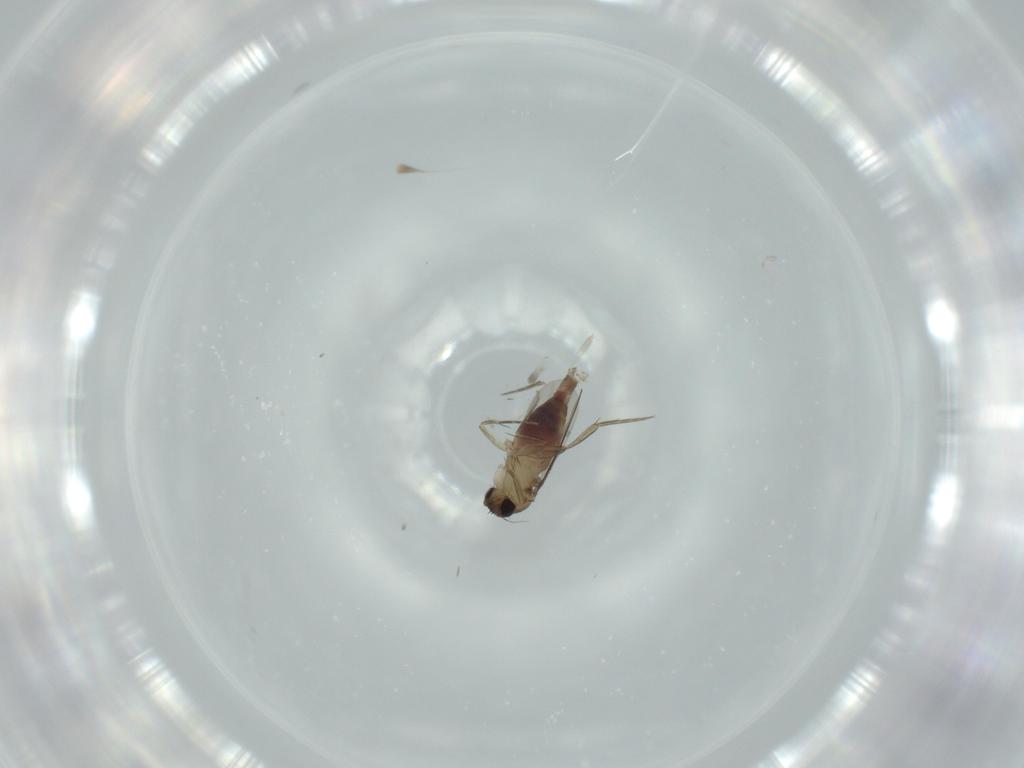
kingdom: Animalia
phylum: Arthropoda
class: Insecta
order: Diptera
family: Phoridae
